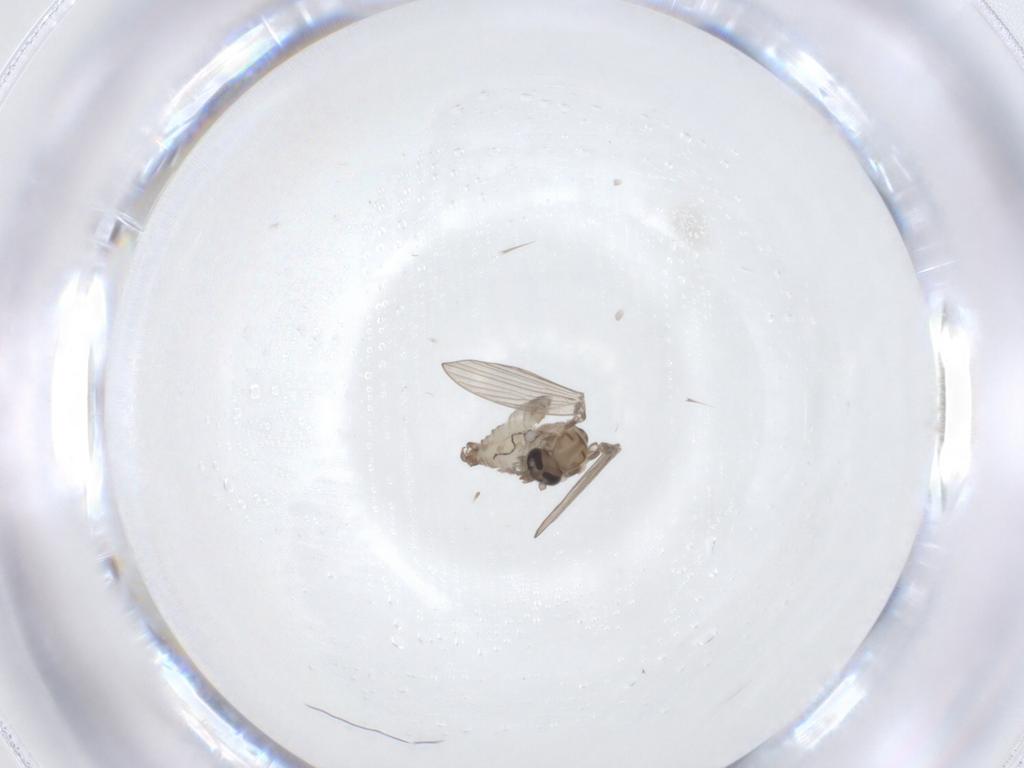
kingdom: Animalia
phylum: Arthropoda
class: Insecta
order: Diptera
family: Psychodidae
